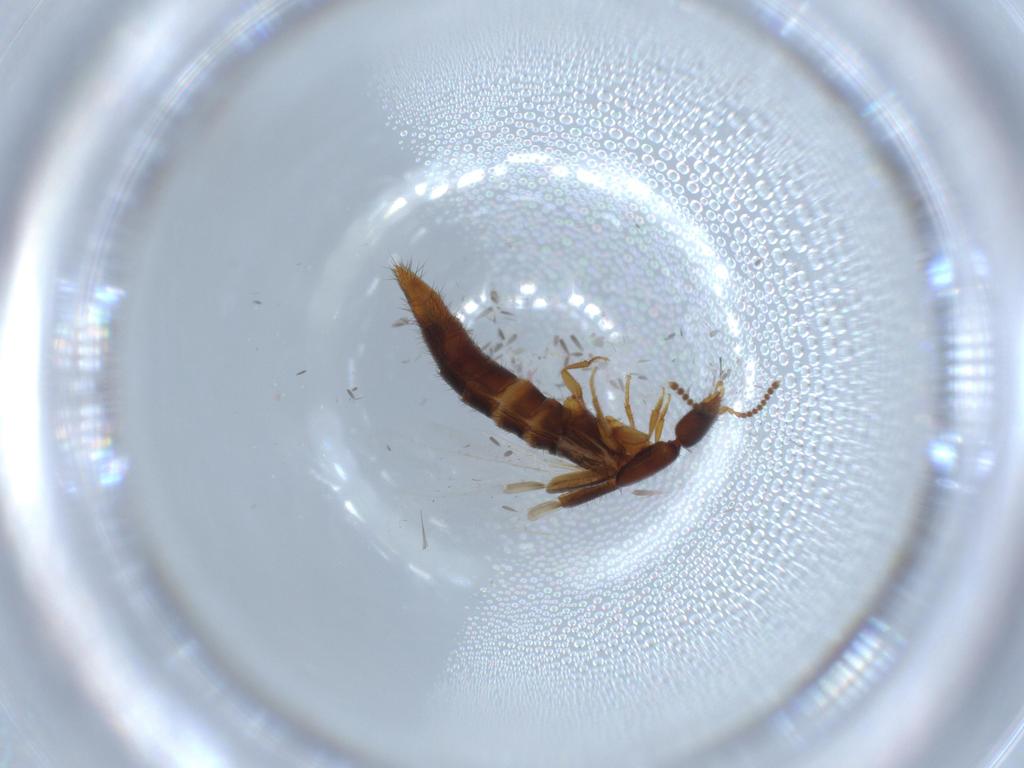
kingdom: Animalia
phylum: Arthropoda
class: Insecta
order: Coleoptera
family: Staphylinidae
